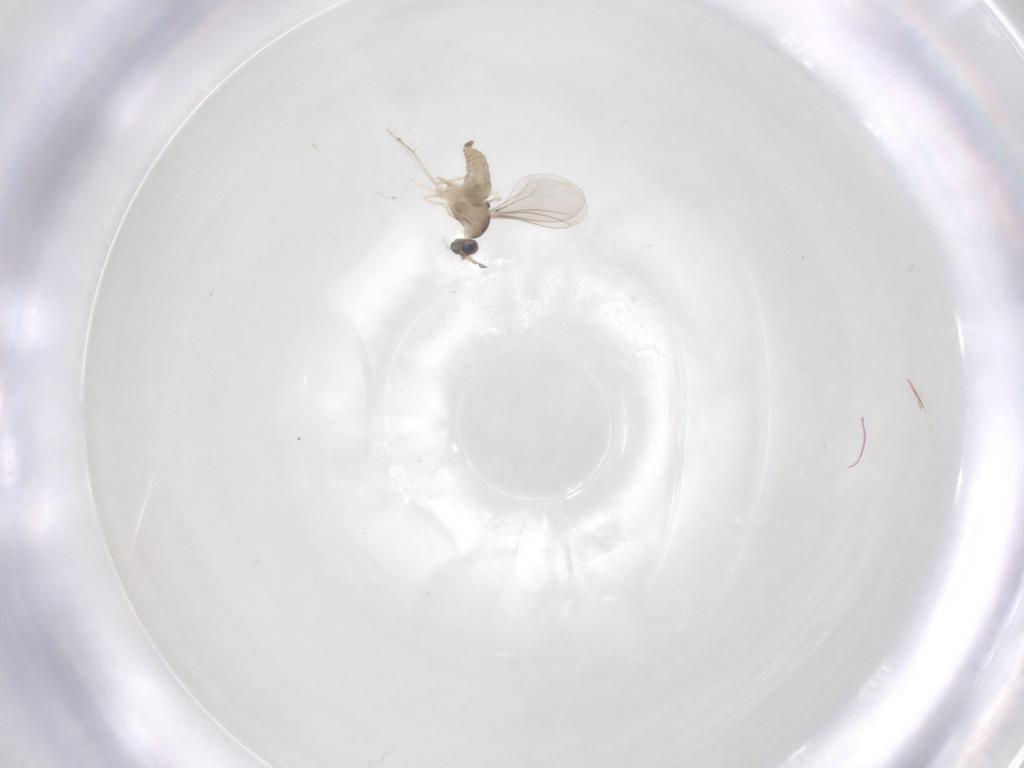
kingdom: Animalia
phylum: Arthropoda
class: Insecta
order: Diptera
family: Cecidomyiidae
